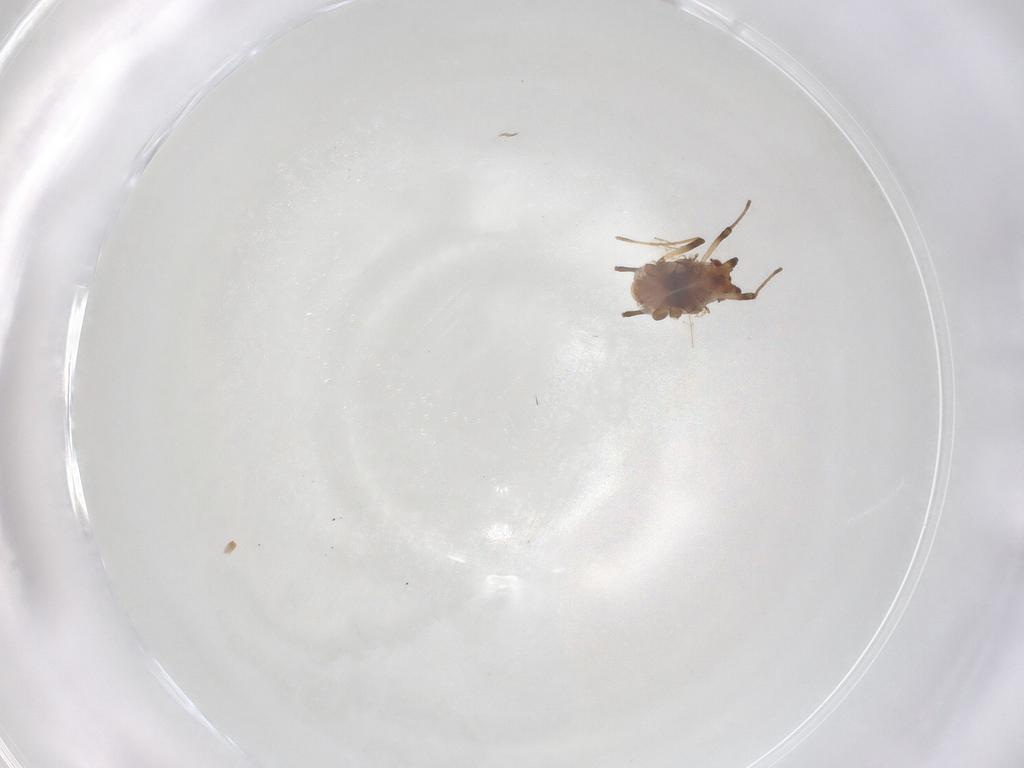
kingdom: Animalia
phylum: Arthropoda
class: Insecta
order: Hemiptera
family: Aphididae
